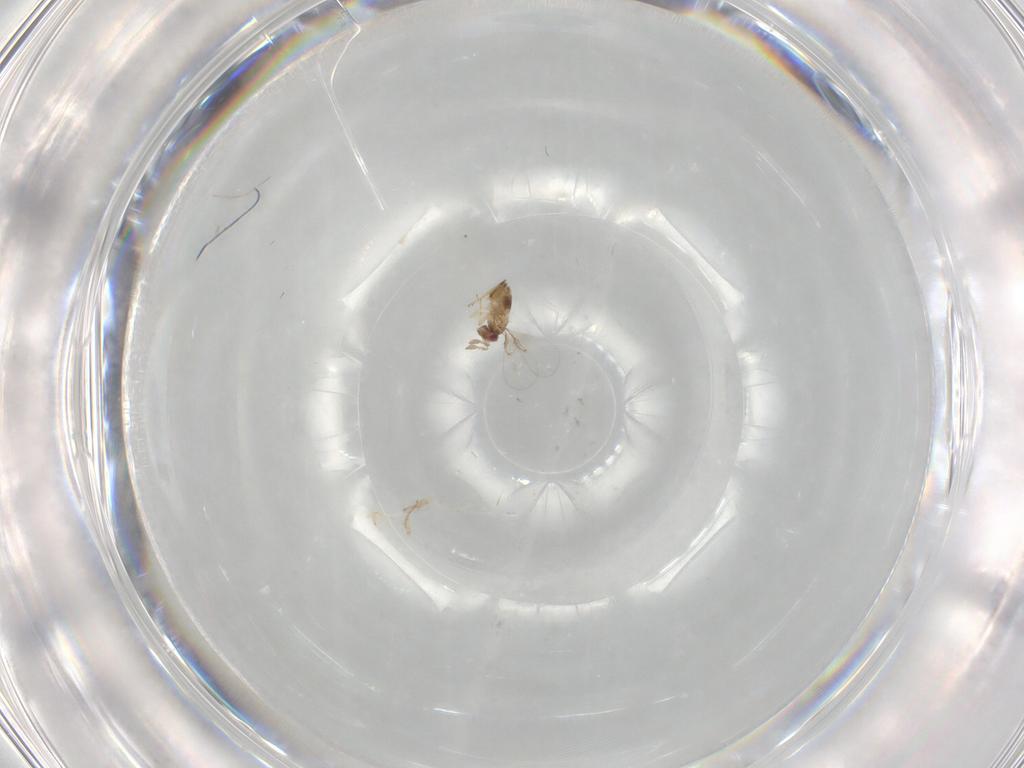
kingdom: Animalia
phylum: Arthropoda
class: Insecta
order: Hymenoptera
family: Trichogrammatidae
